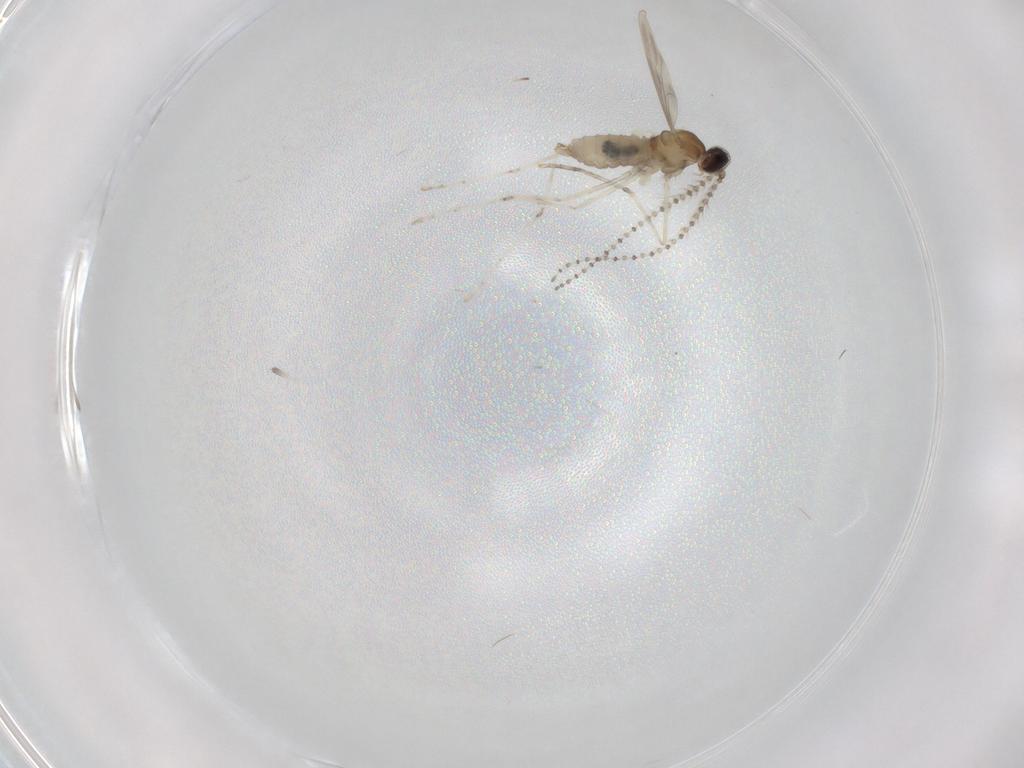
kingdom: Animalia
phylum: Arthropoda
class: Insecta
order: Diptera
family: Cecidomyiidae
